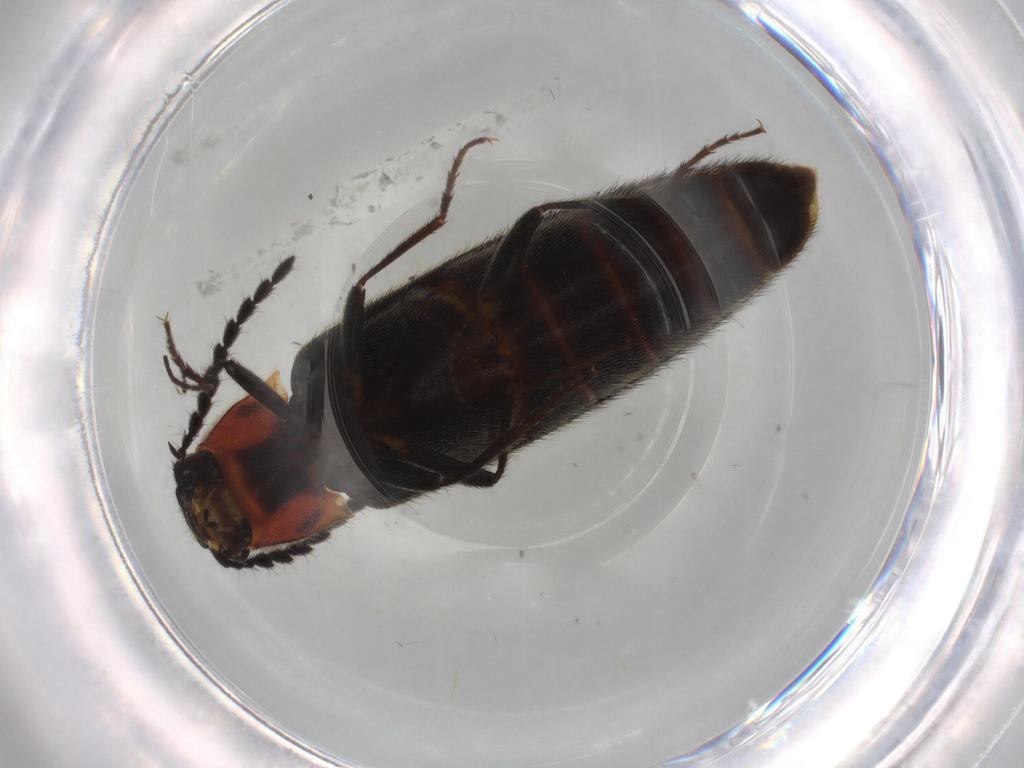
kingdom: Animalia
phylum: Arthropoda
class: Insecta
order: Coleoptera
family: Elateridae
